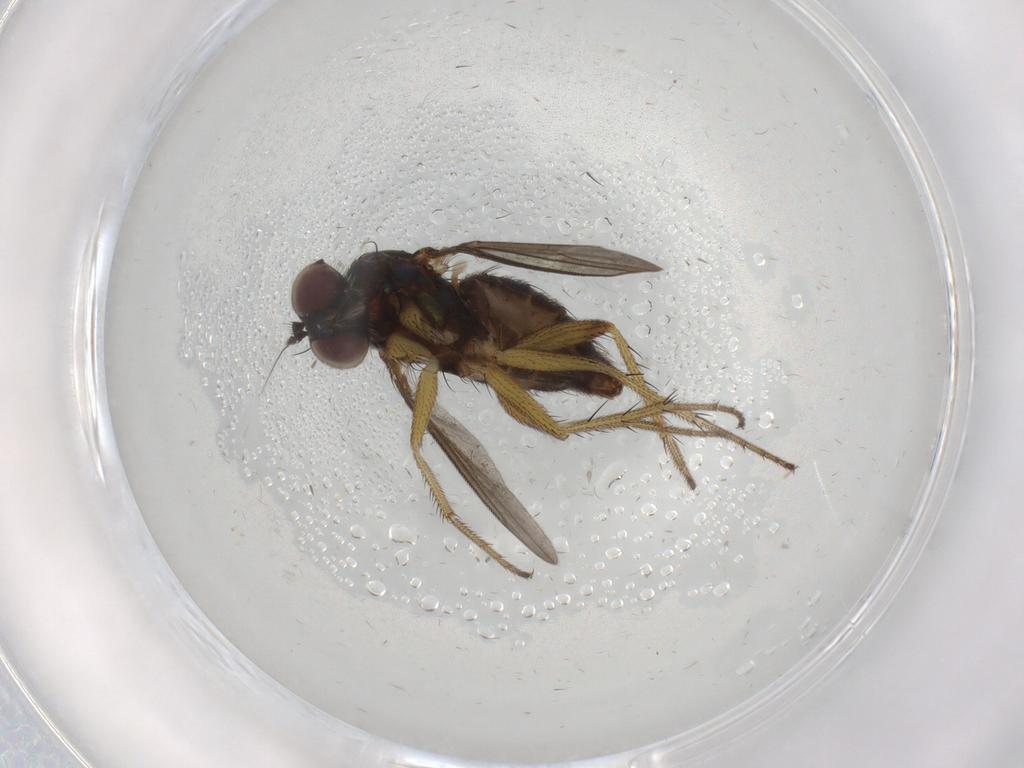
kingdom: Animalia
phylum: Arthropoda
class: Insecta
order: Diptera
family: Dolichopodidae
